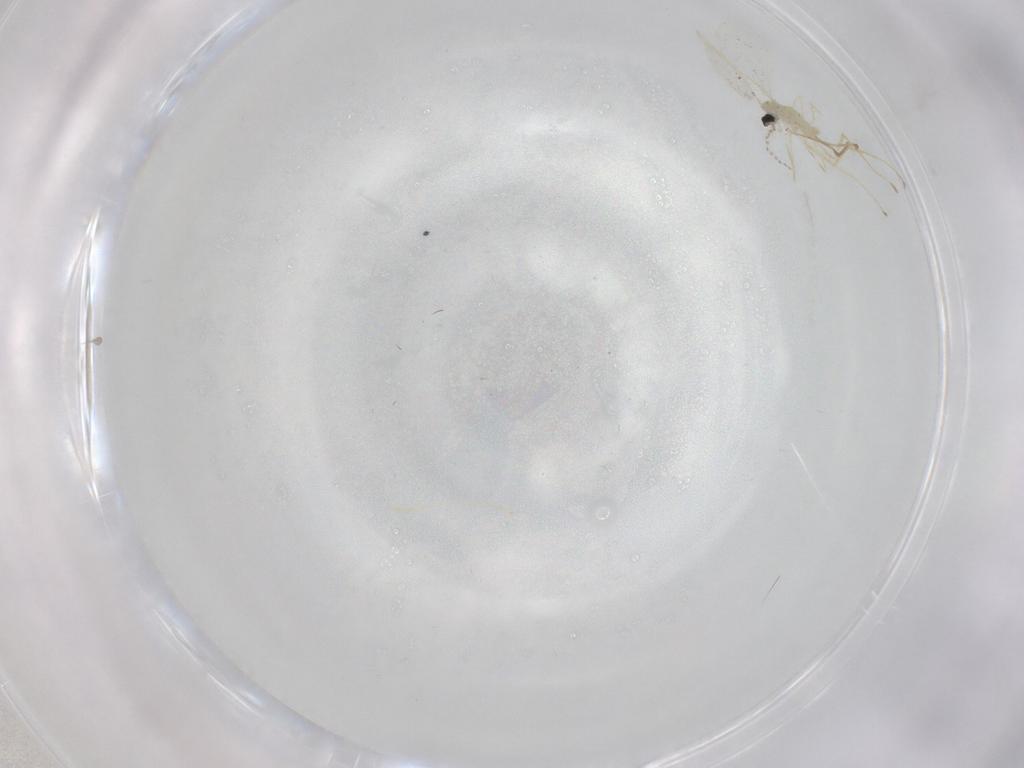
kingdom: Animalia
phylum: Arthropoda
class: Insecta
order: Diptera
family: Cecidomyiidae
